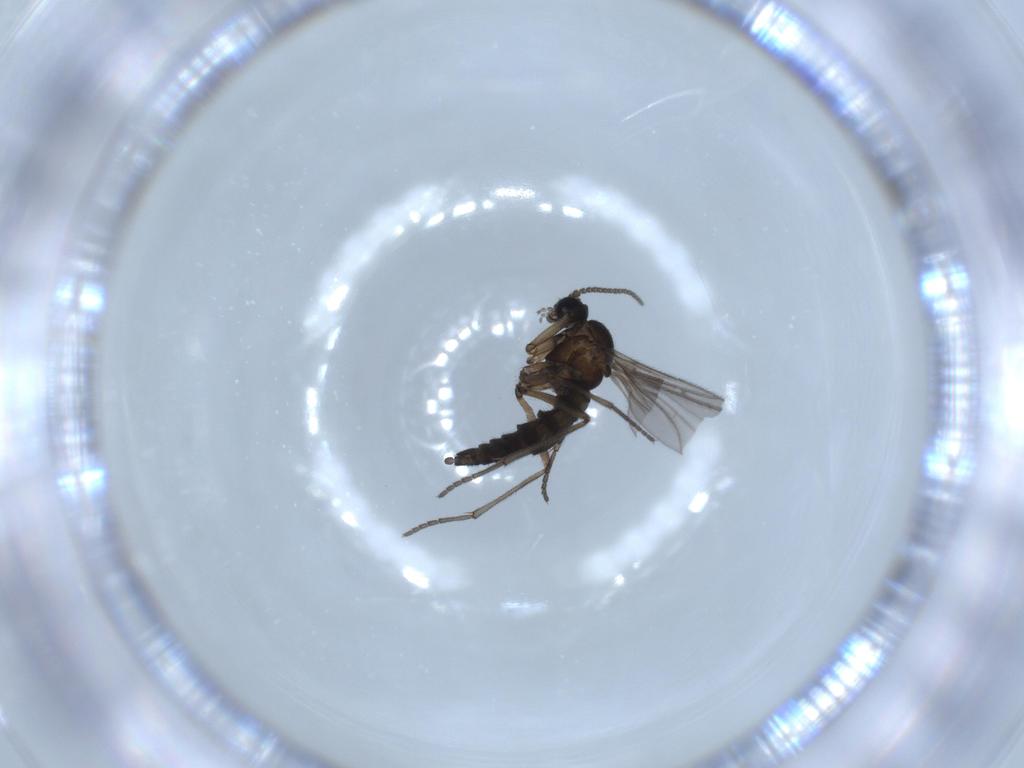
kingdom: Animalia
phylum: Arthropoda
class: Insecta
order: Diptera
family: Sciaridae
